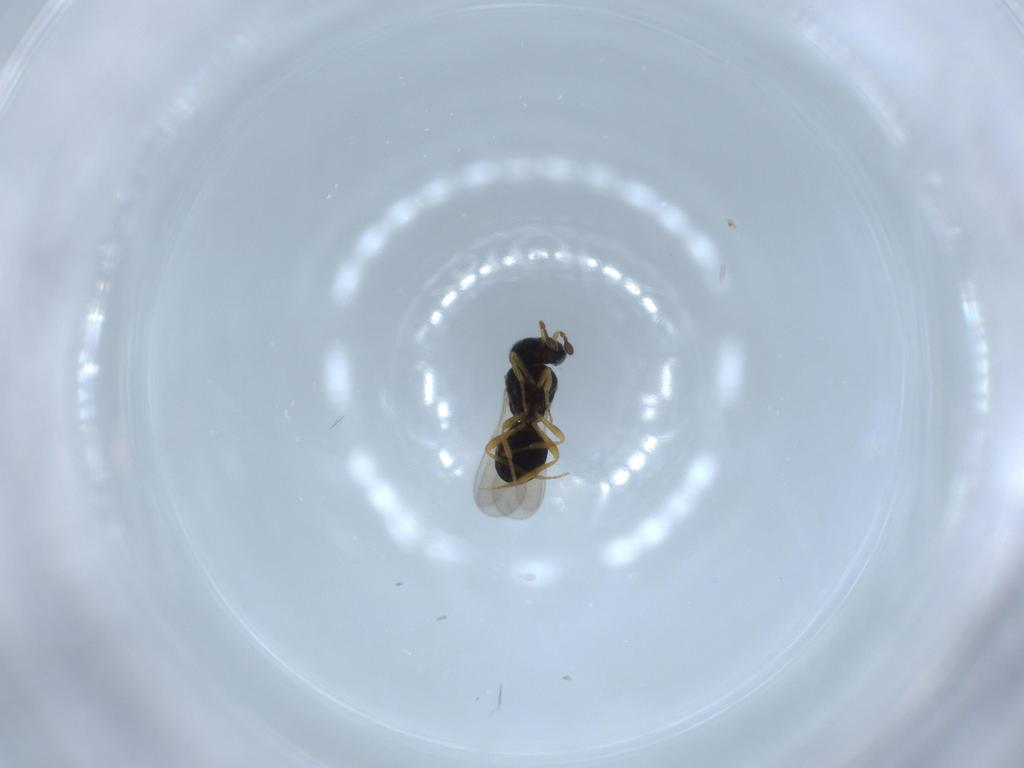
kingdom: Animalia
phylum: Arthropoda
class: Insecta
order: Hymenoptera
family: Scelionidae
